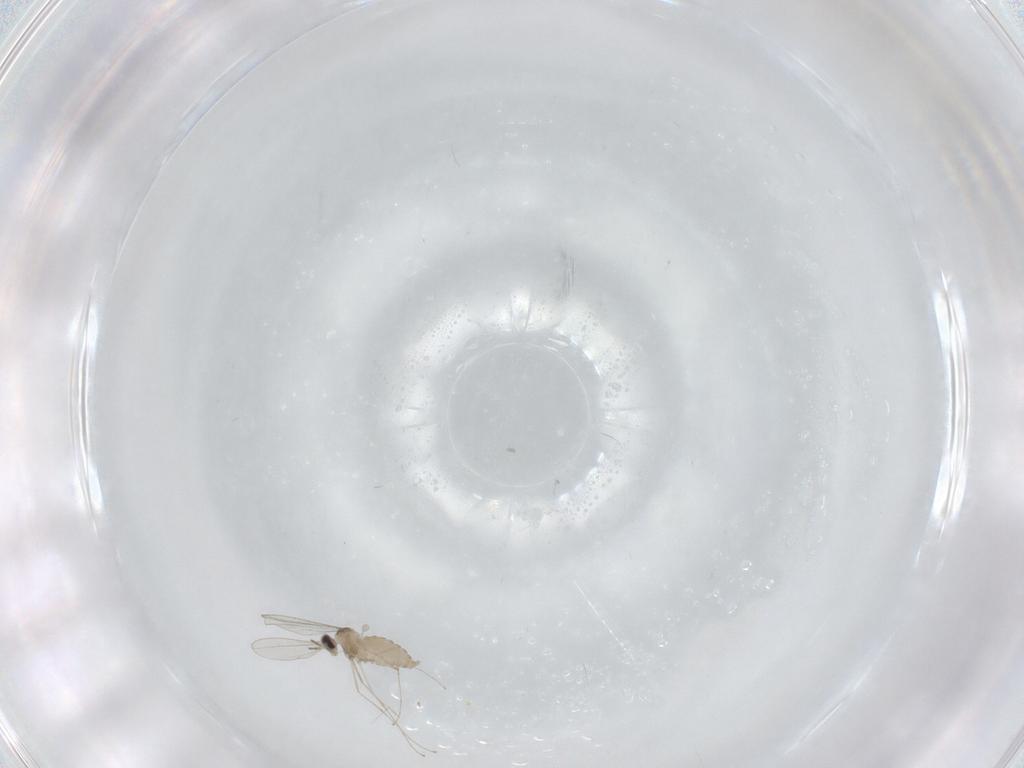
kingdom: Animalia
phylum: Arthropoda
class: Insecta
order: Diptera
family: Cecidomyiidae
